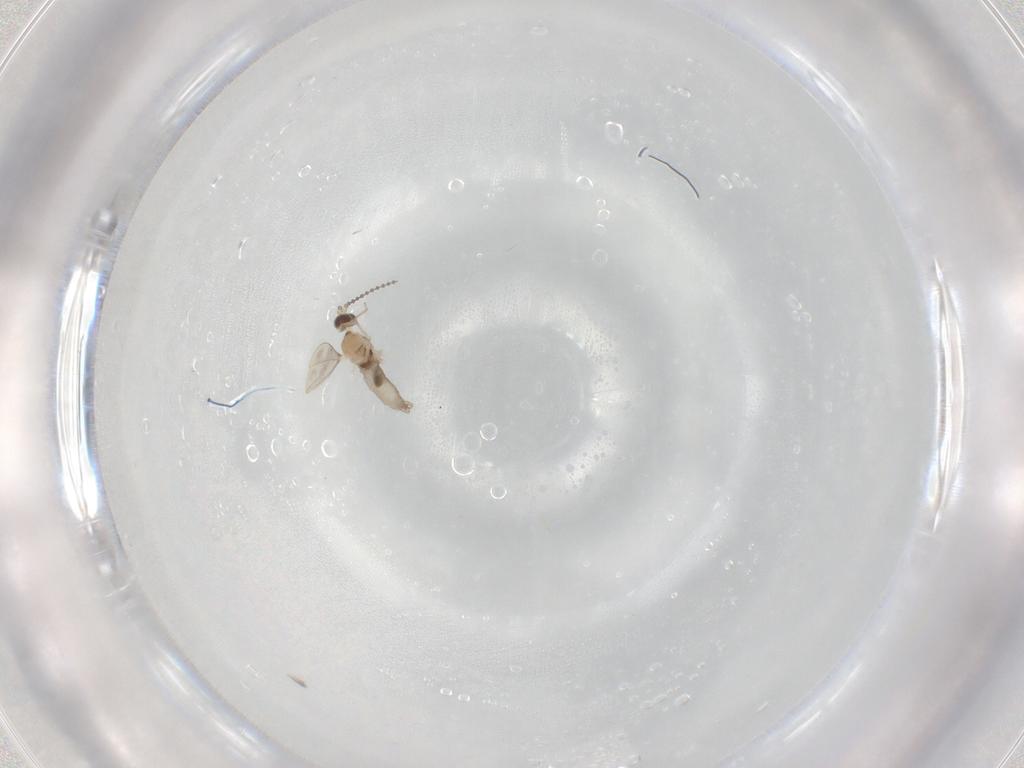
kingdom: Animalia
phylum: Arthropoda
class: Insecta
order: Diptera
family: Phoridae
